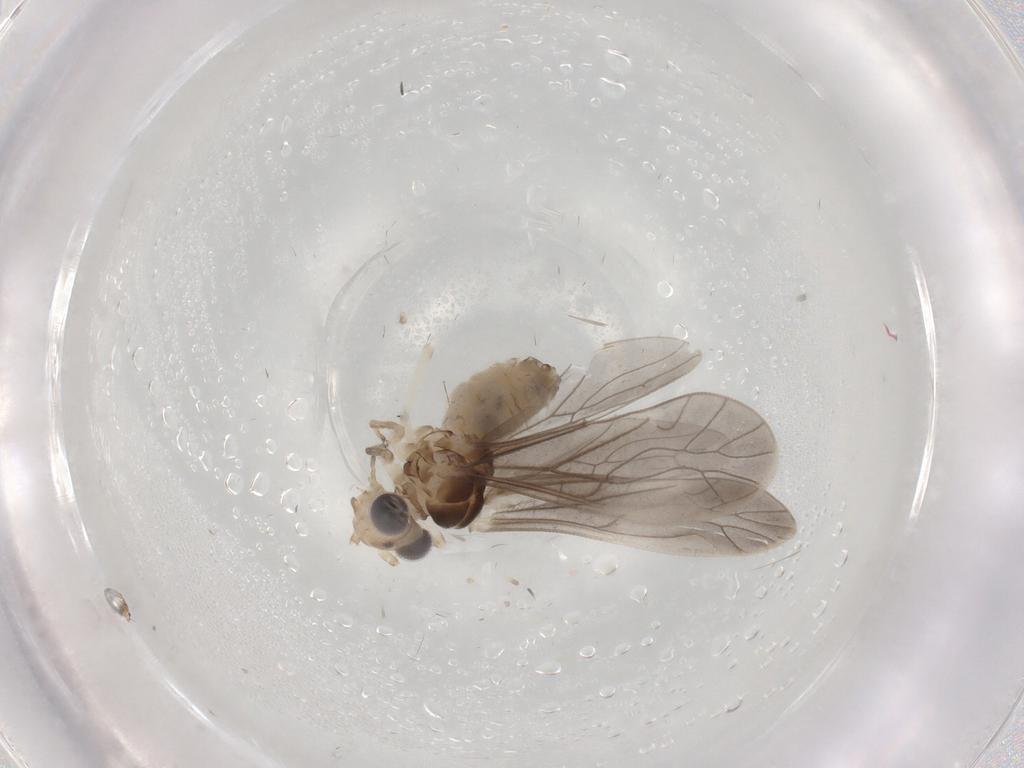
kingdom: Animalia
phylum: Arthropoda
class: Insecta
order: Psocodea
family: Caeciliusidae
